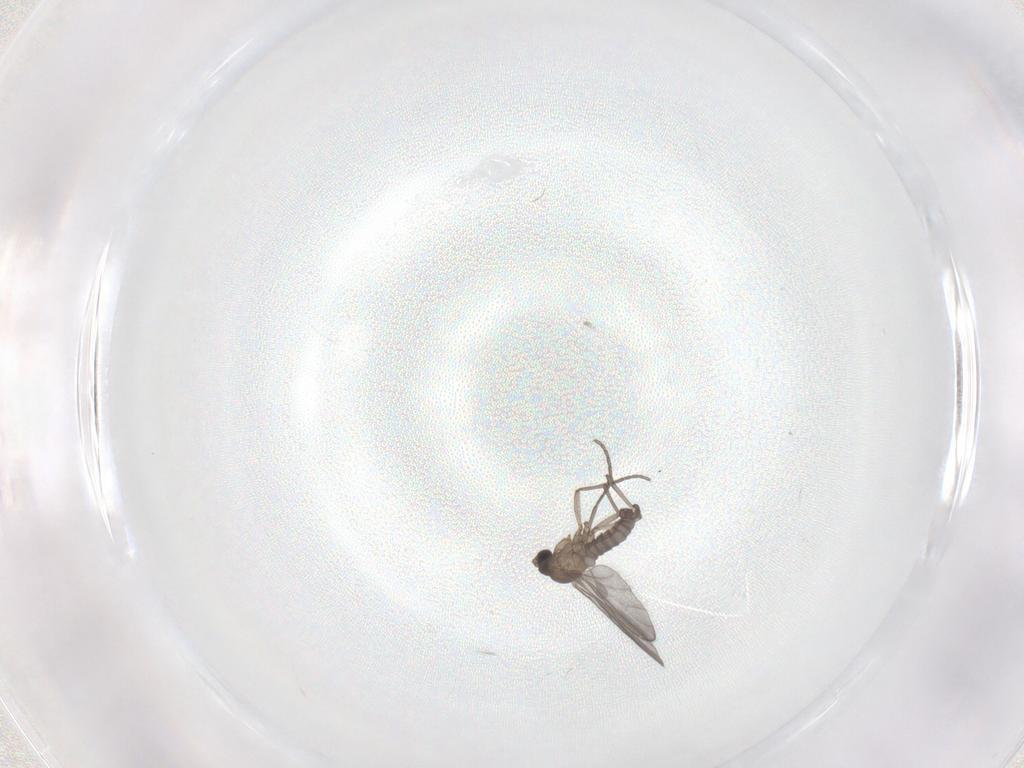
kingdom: Animalia
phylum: Arthropoda
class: Insecta
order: Diptera
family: Sciaridae
